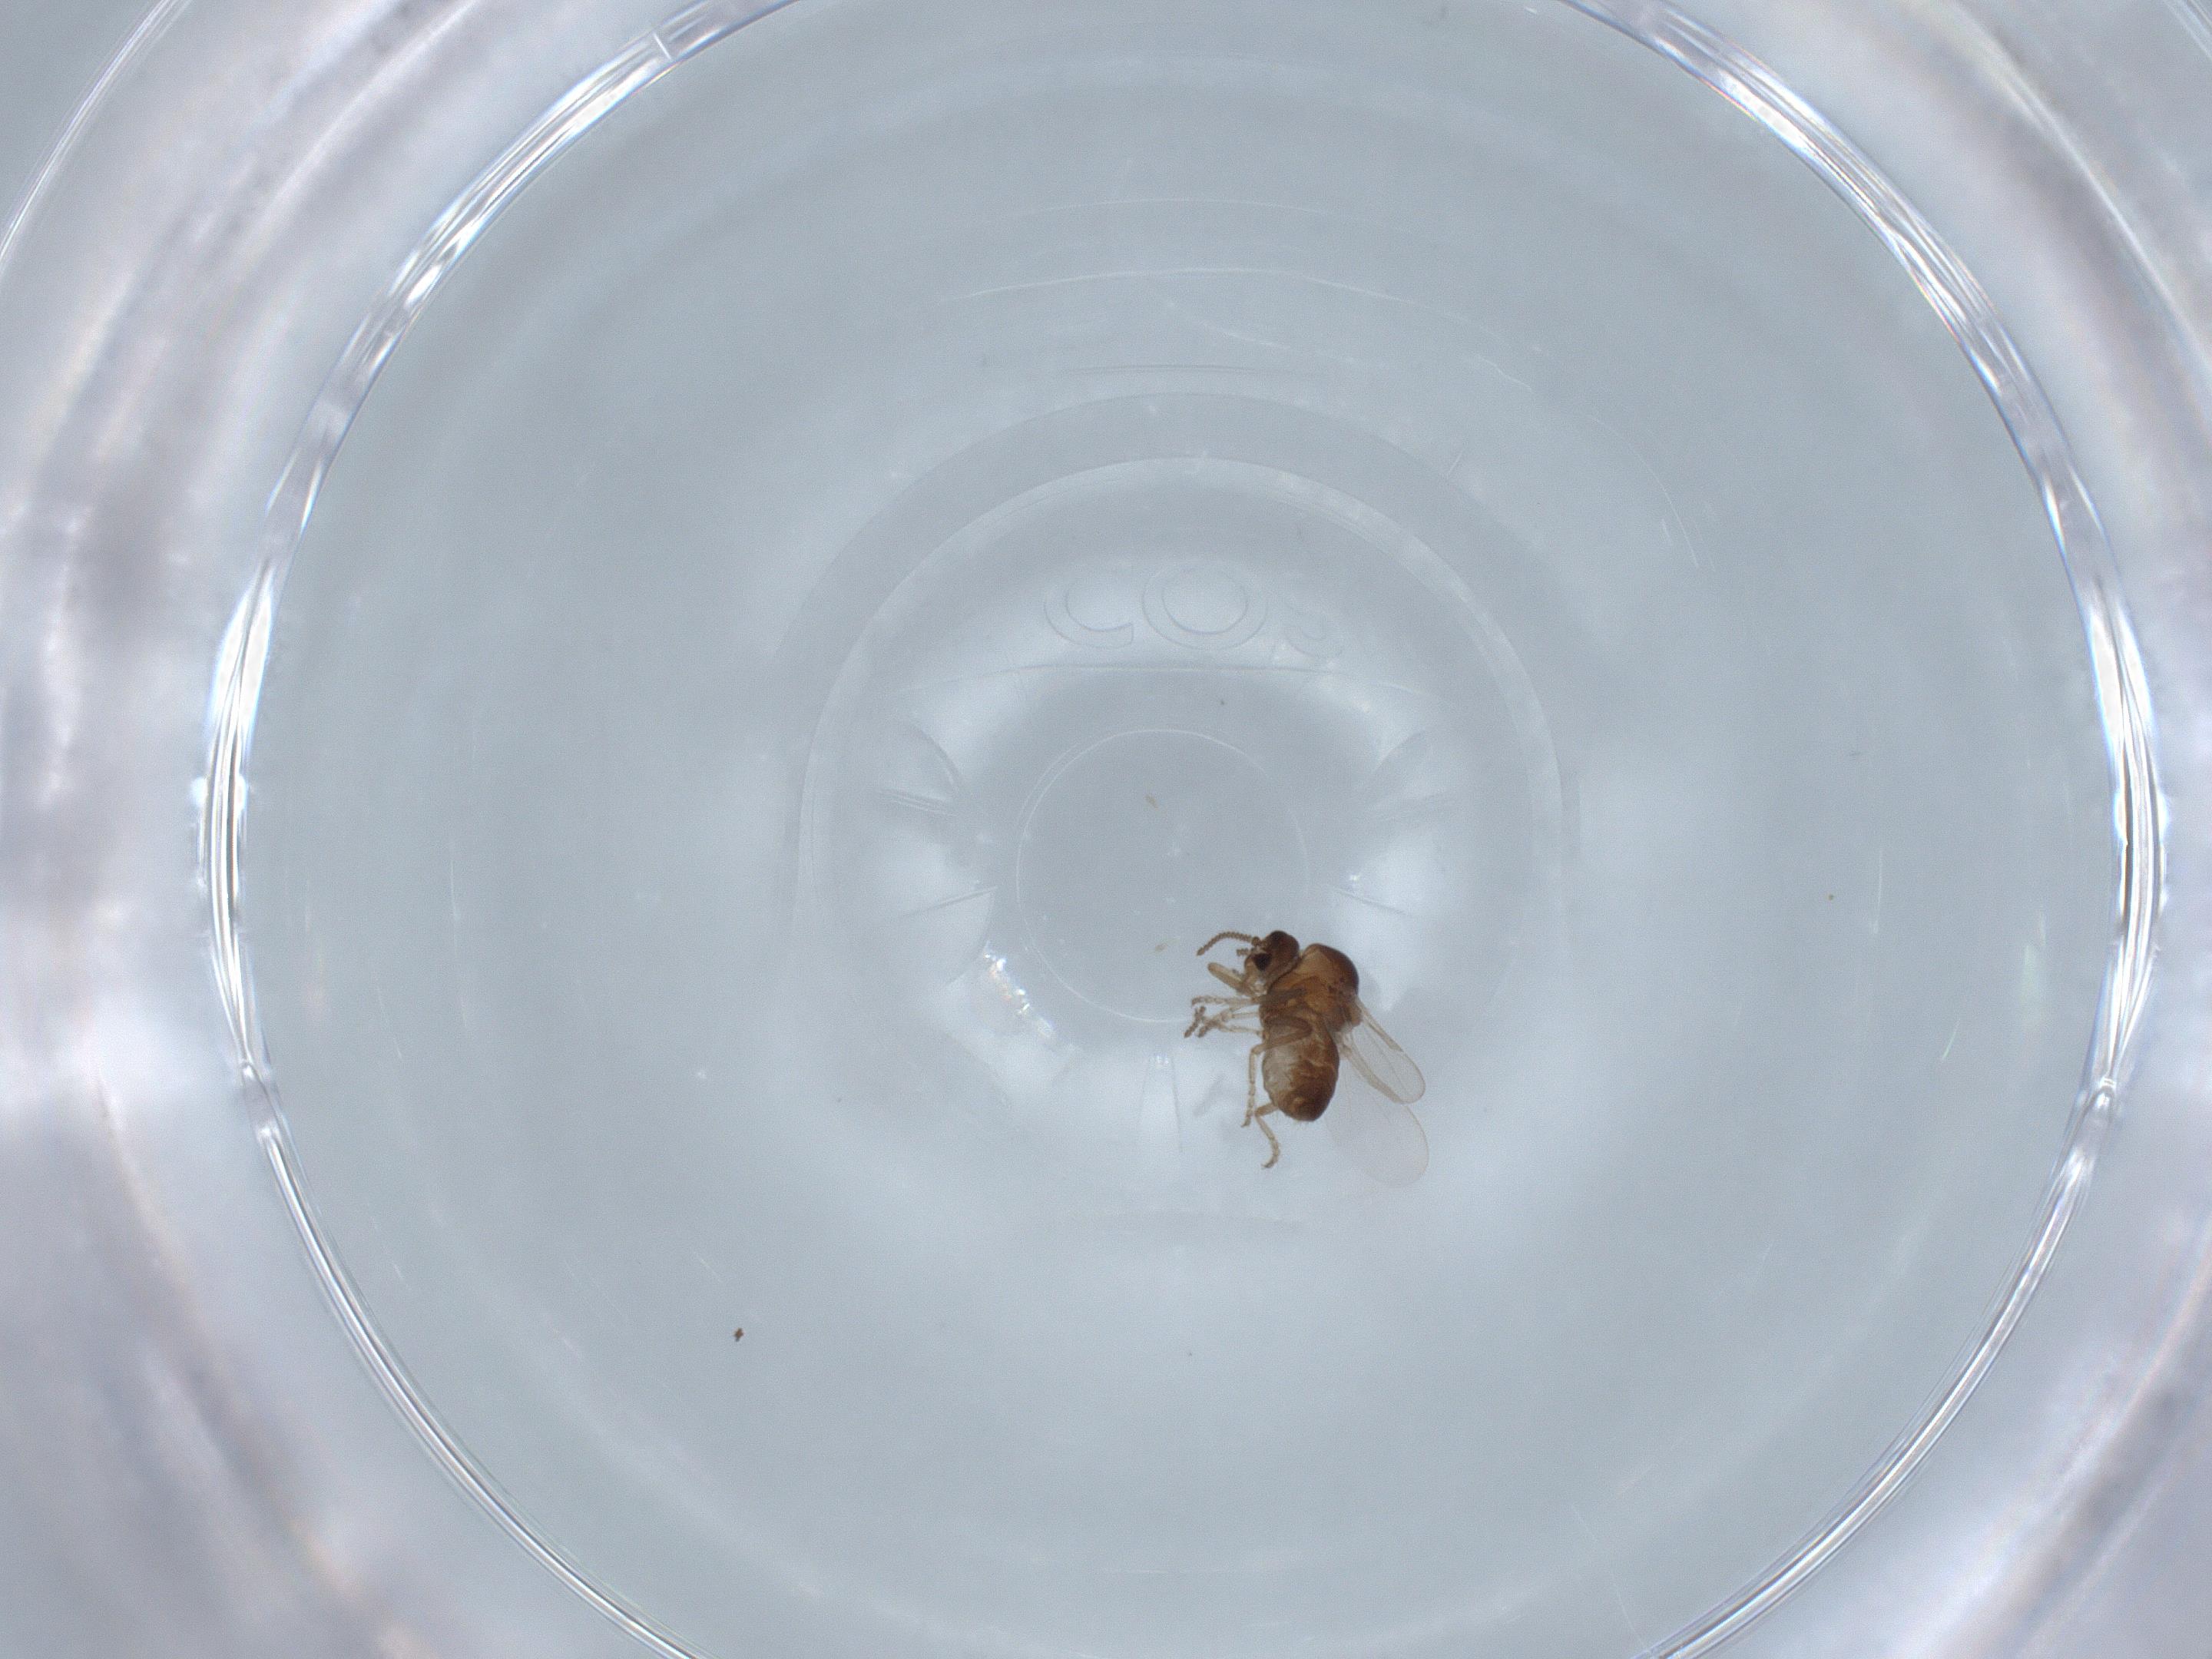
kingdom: Animalia
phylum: Arthropoda
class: Insecta
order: Diptera
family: Ceratopogonidae
